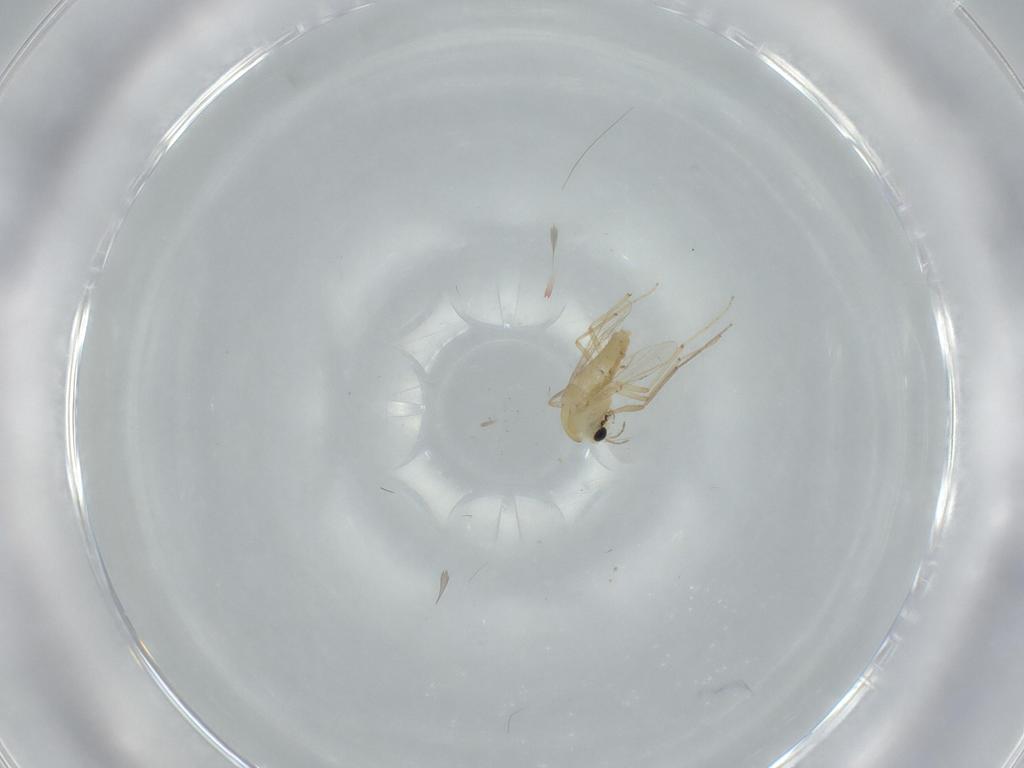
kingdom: Animalia
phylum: Arthropoda
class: Insecta
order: Diptera
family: Chironomidae
